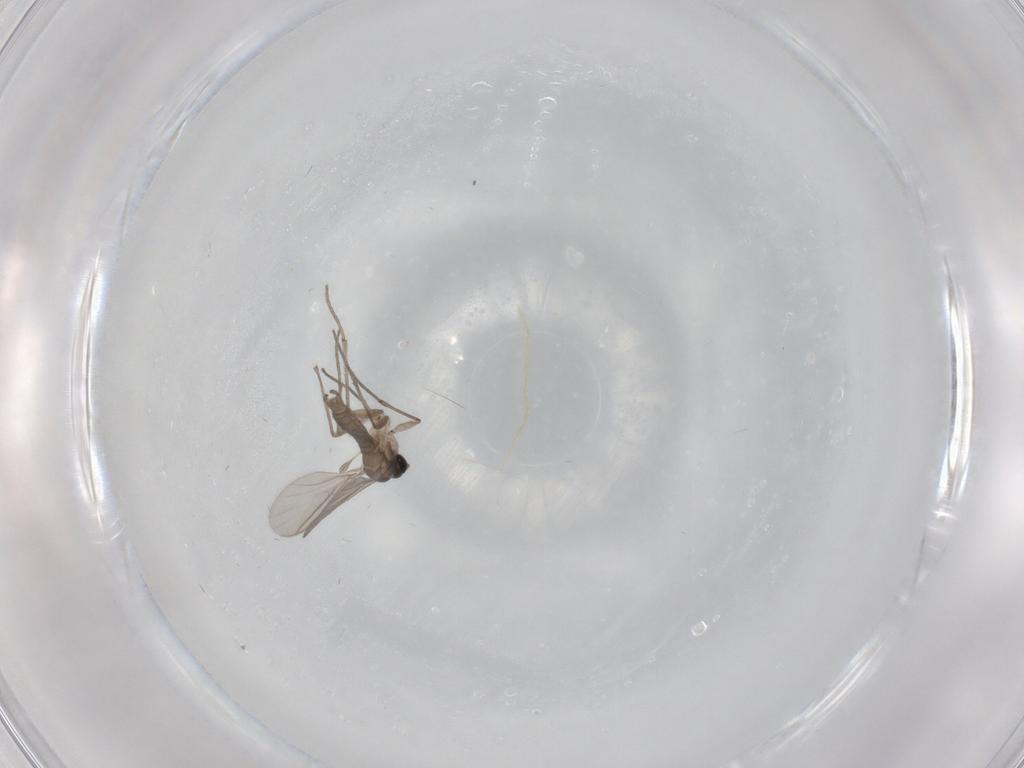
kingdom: Animalia
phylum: Arthropoda
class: Insecta
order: Diptera
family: Sciaridae
